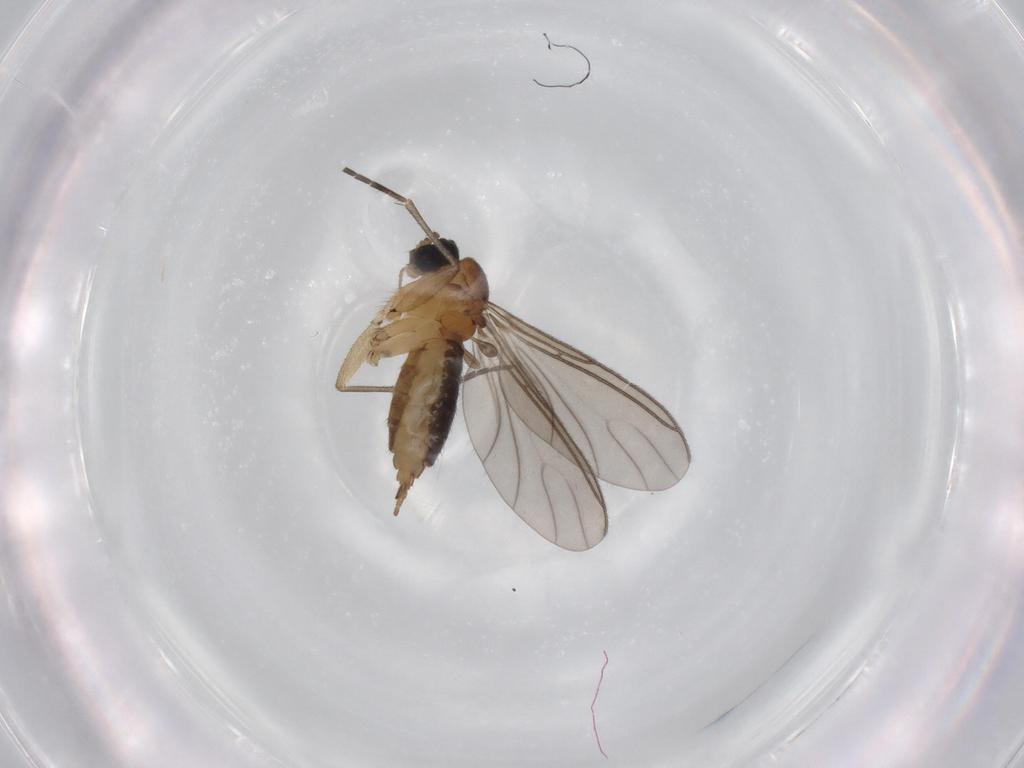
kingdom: Animalia
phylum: Arthropoda
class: Insecta
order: Diptera
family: Sciaridae
